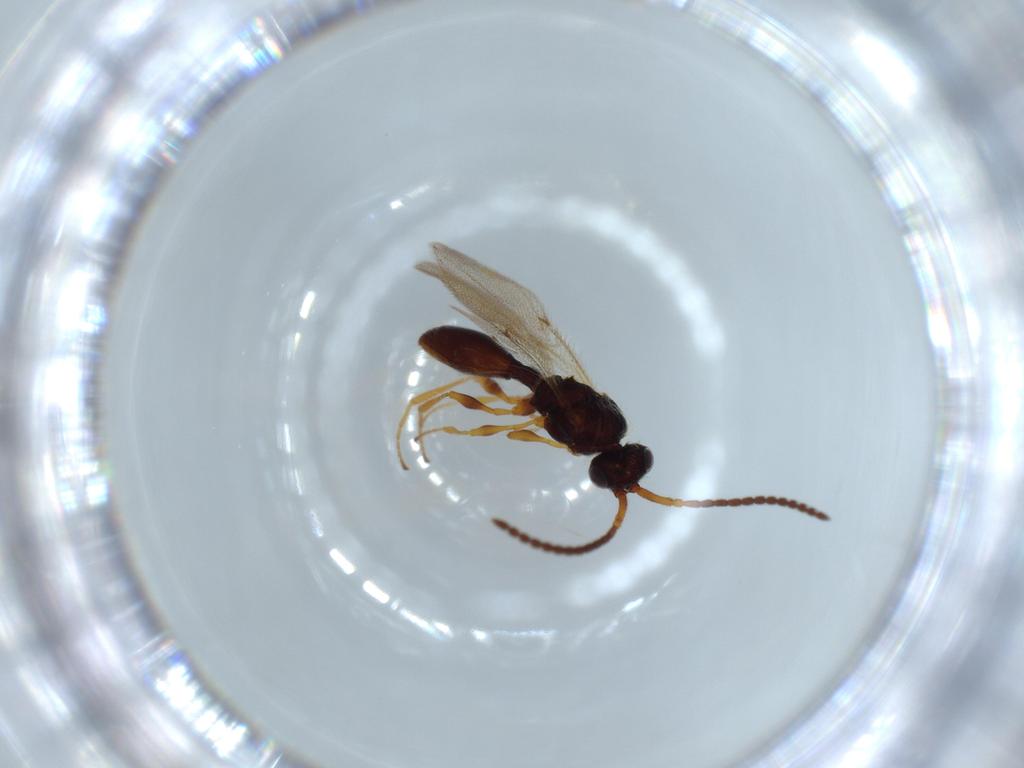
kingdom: Animalia
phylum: Arthropoda
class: Insecta
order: Hymenoptera
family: Diapriidae
